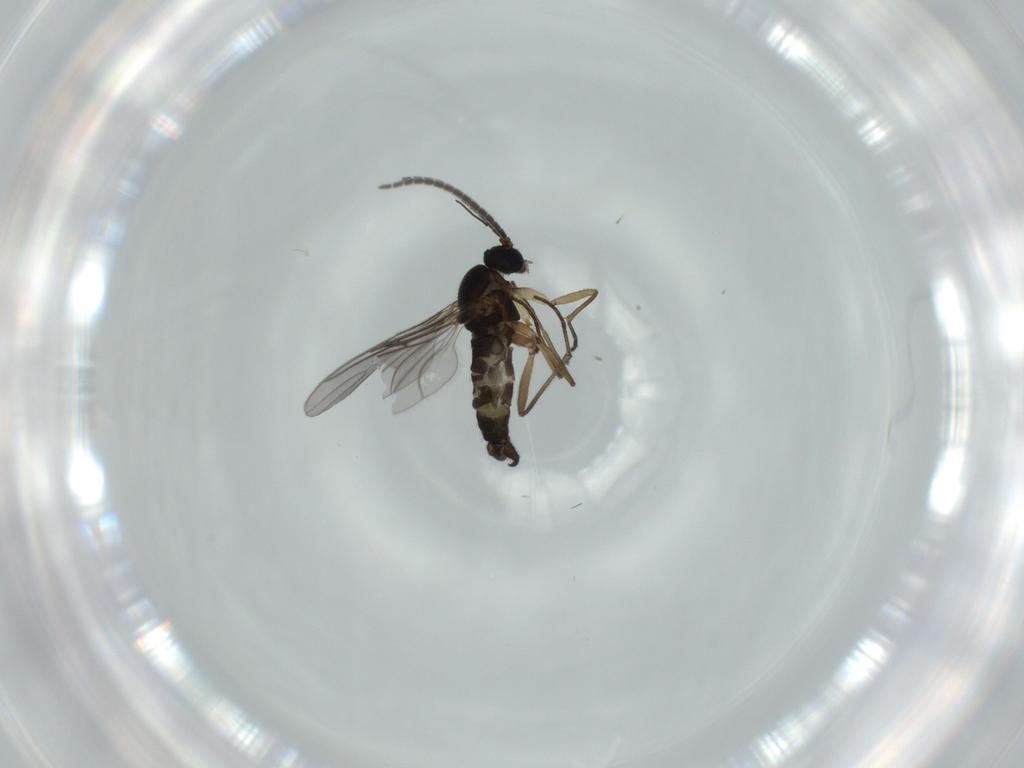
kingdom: Animalia
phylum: Arthropoda
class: Insecta
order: Diptera
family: Sciaridae
